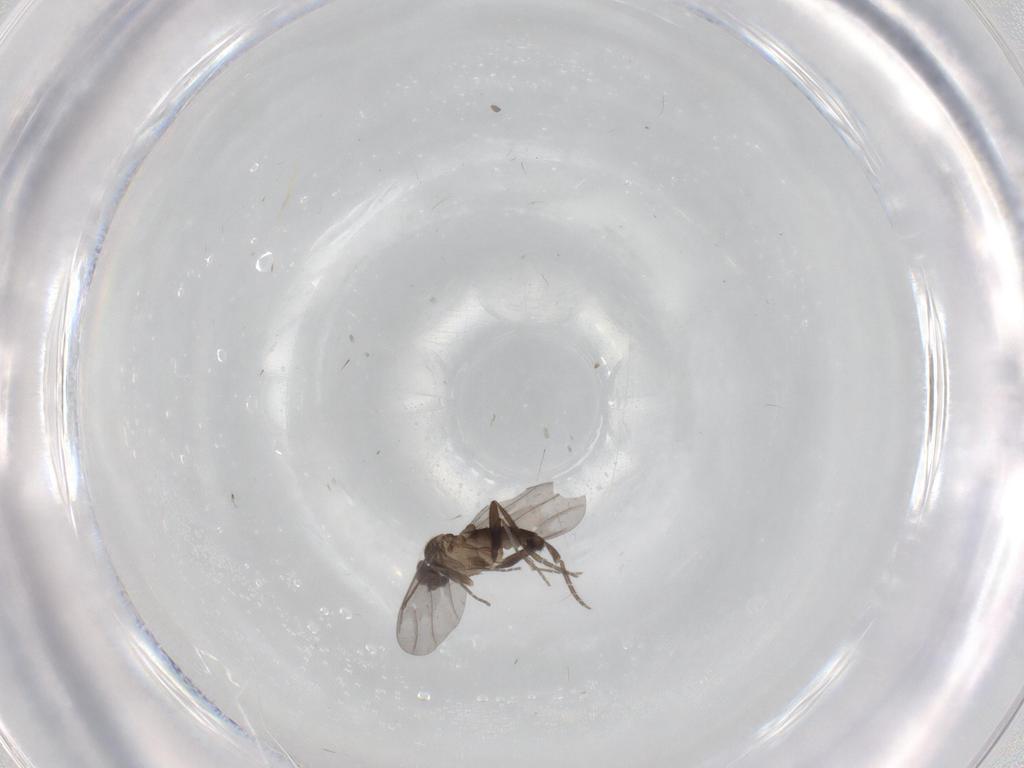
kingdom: Animalia
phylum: Arthropoda
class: Insecta
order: Diptera
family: Phoridae
